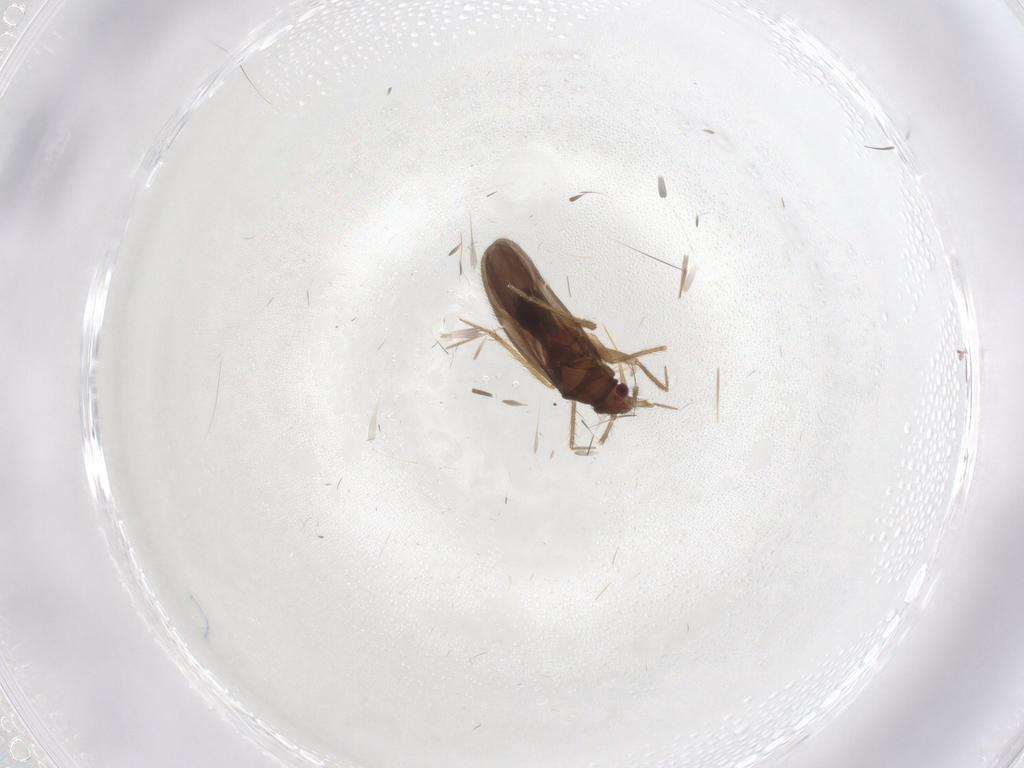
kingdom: Animalia
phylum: Arthropoda
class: Insecta
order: Hemiptera
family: Ceratocombidae
